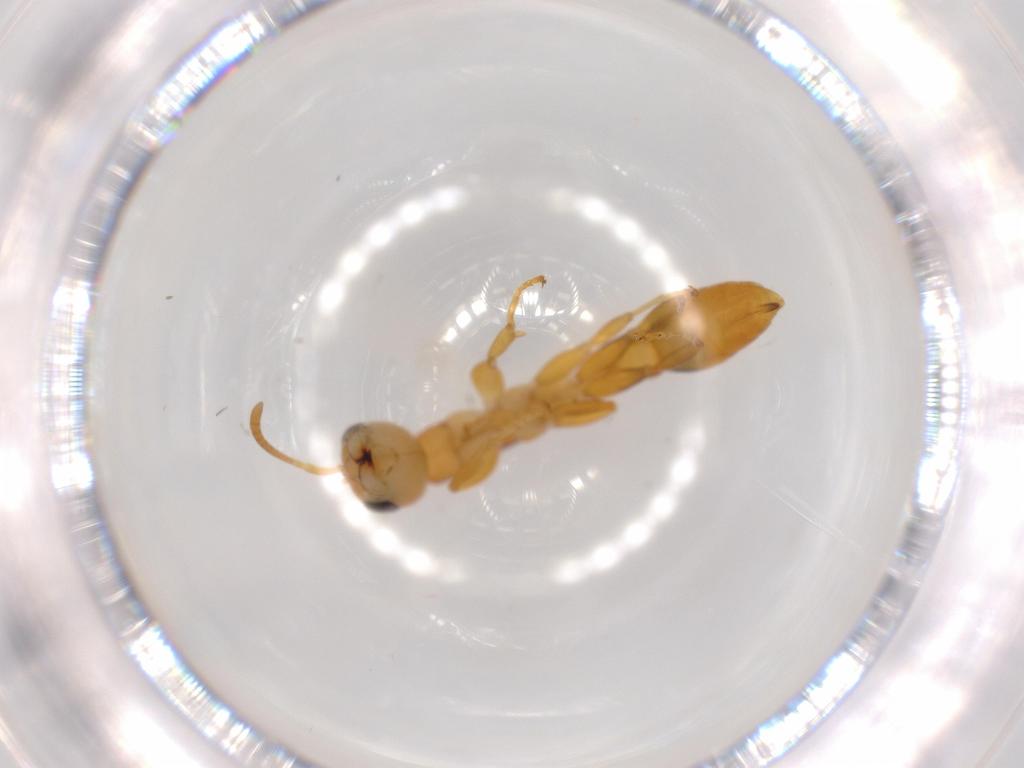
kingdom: Animalia
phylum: Arthropoda
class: Insecta
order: Hymenoptera
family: Formicidae
